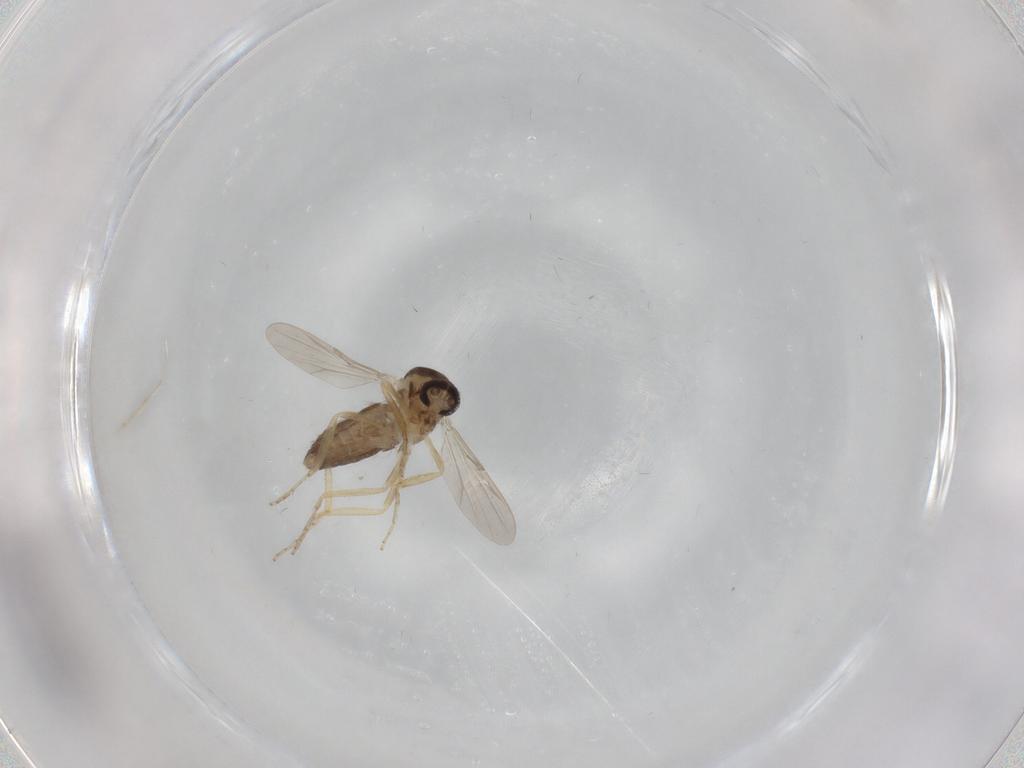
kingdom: Animalia
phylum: Arthropoda
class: Insecta
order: Diptera
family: Ceratopogonidae
